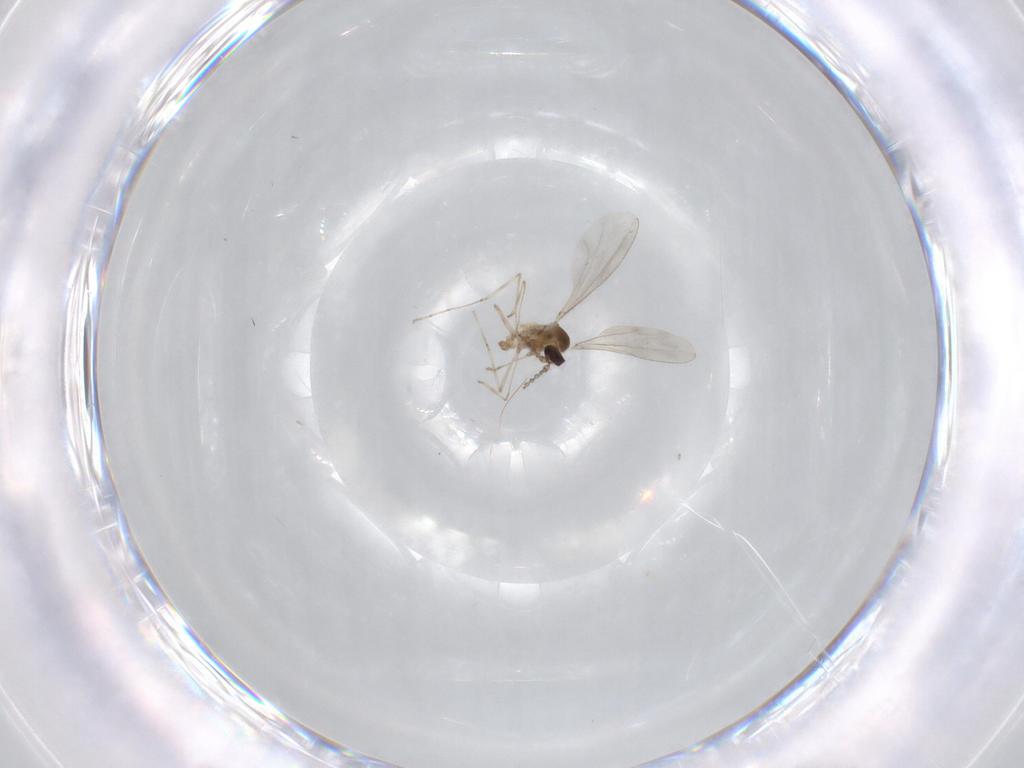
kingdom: Animalia
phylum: Arthropoda
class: Insecta
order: Diptera
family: Cecidomyiidae
